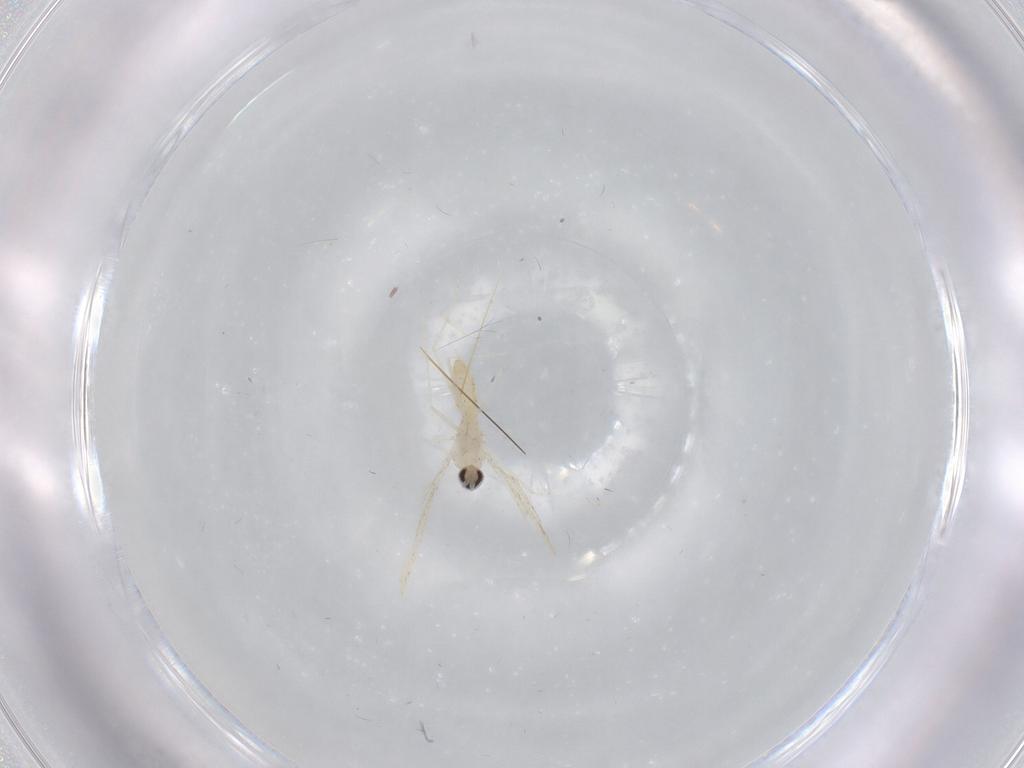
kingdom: Animalia
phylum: Arthropoda
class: Insecta
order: Diptera
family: Cecidomyiidae
